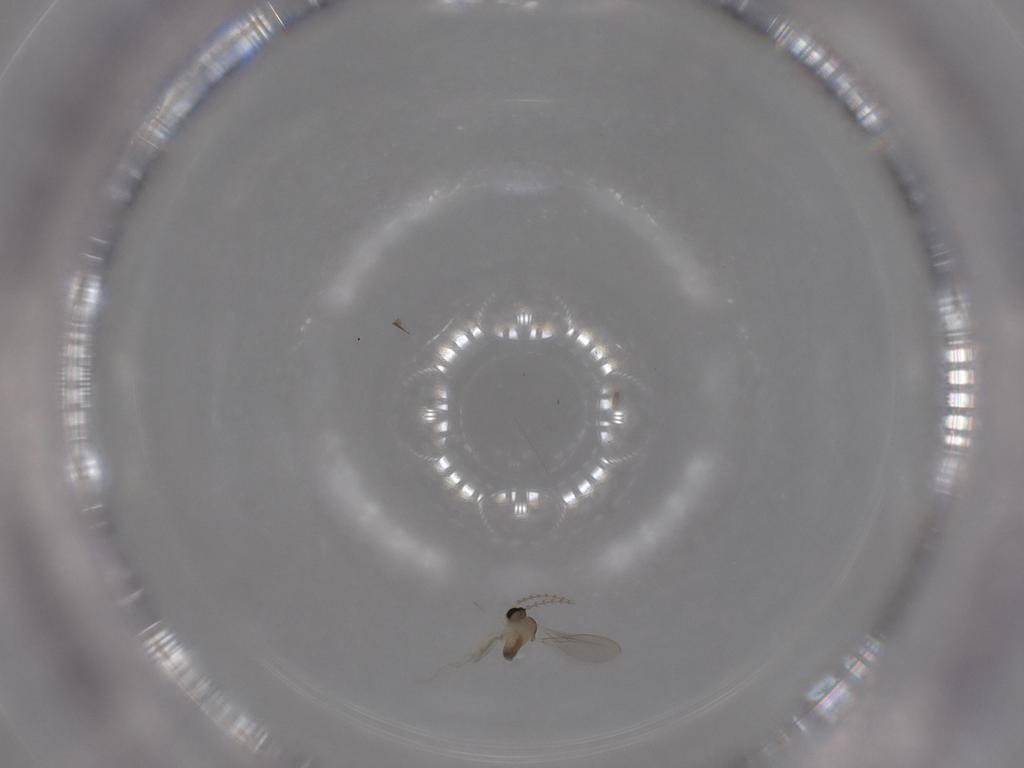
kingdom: Animalia
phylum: Arthropoda
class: Insecta
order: Diptera
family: Cecidomyiidae
